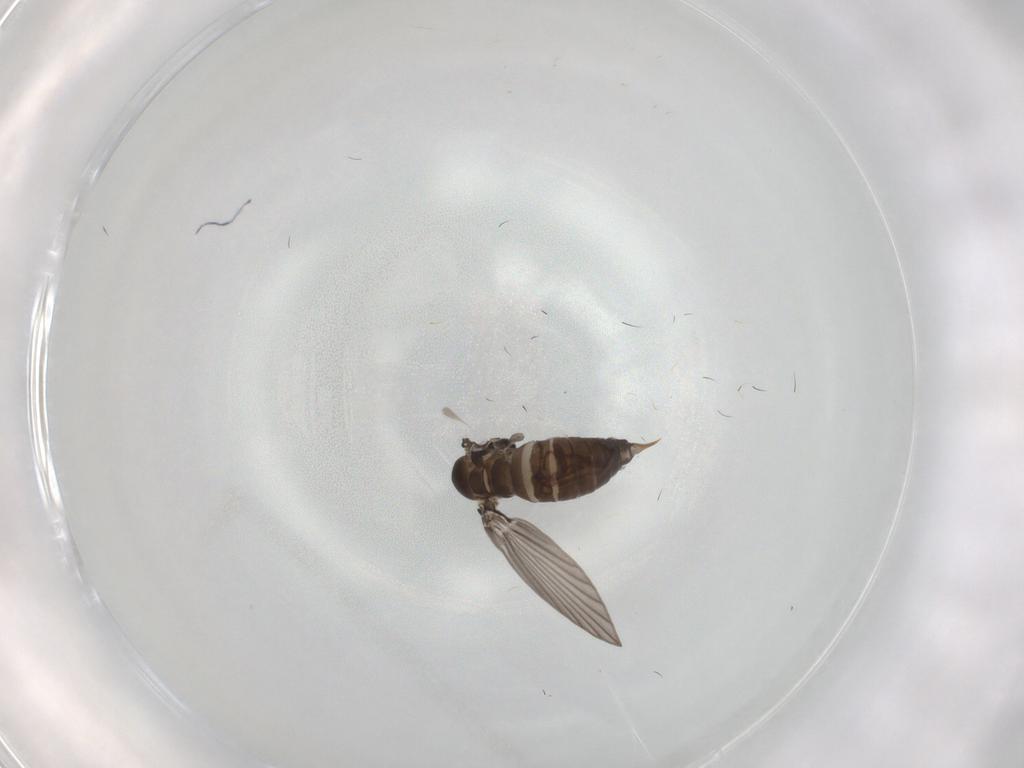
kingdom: Animalia
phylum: Arthropoda
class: Insecta
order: Diptera
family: Psychodidae
